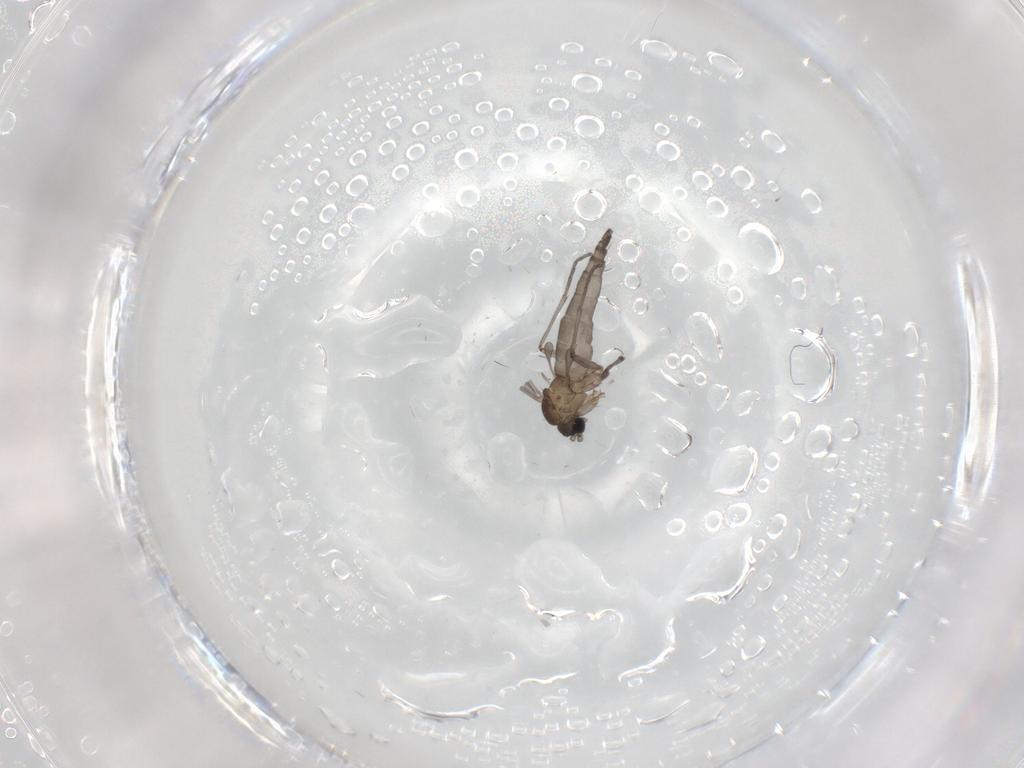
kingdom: Animalia
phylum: Arthropoda
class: Insecta
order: Diptera
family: Sciaridae
